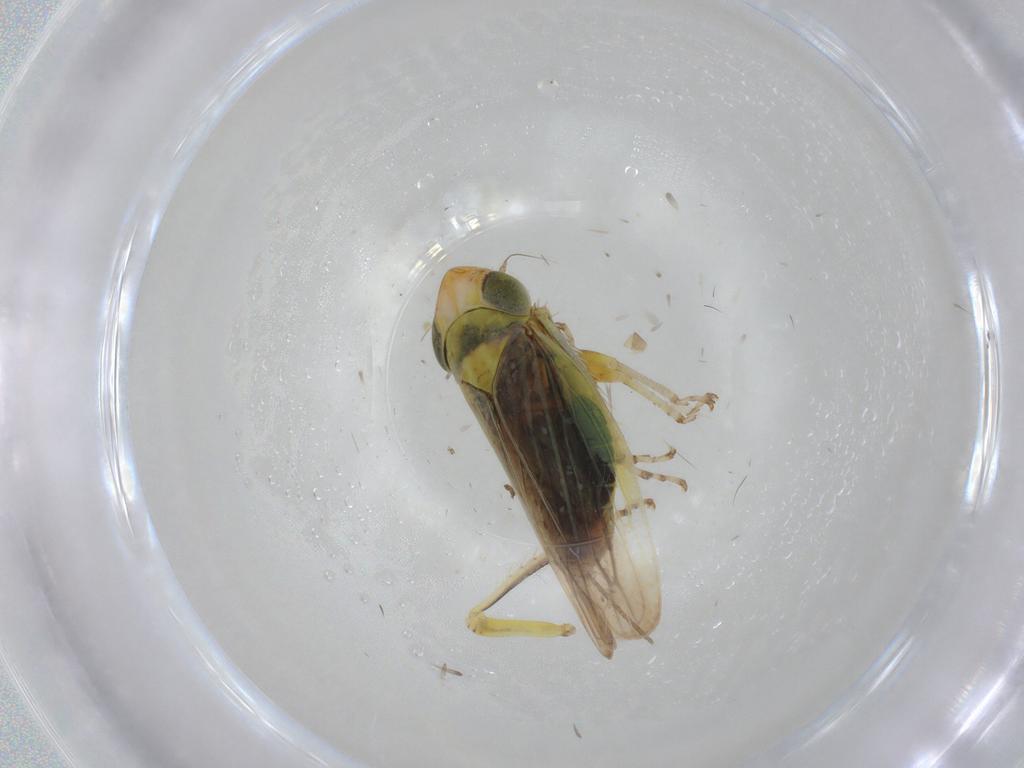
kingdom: Animalia
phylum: Arthropoda
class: Insecta
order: Hemiptera
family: Cicadellidae
